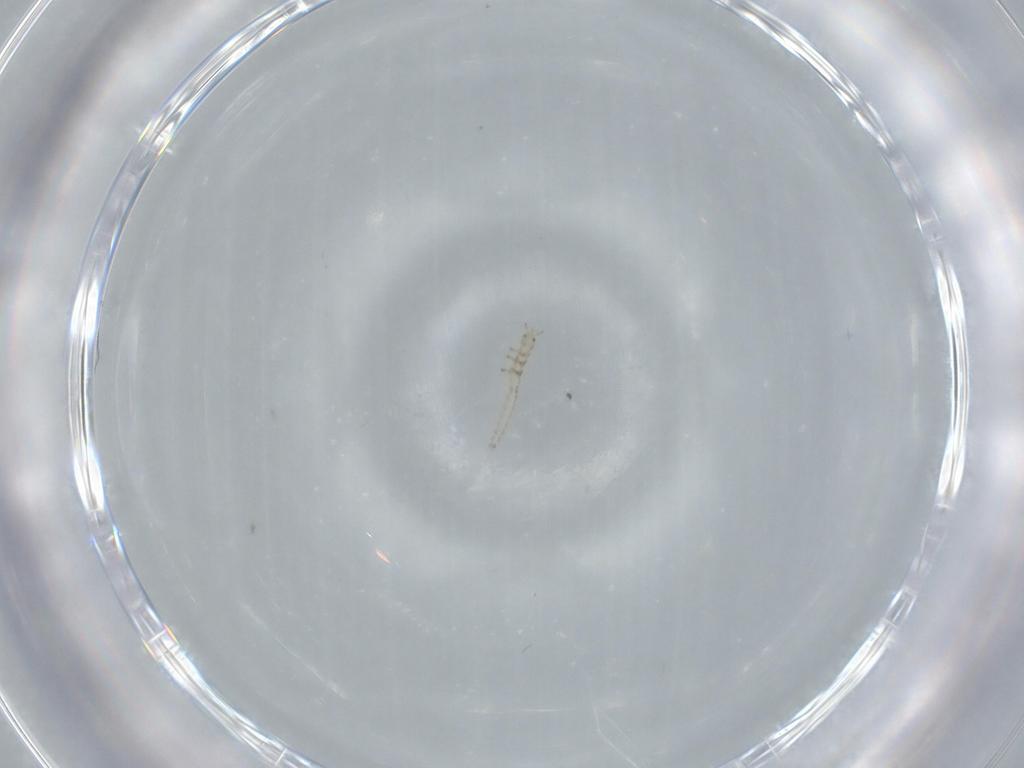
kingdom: Animalia
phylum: Arthropoda
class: Insecta
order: Neuroptera
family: Mantispidae
